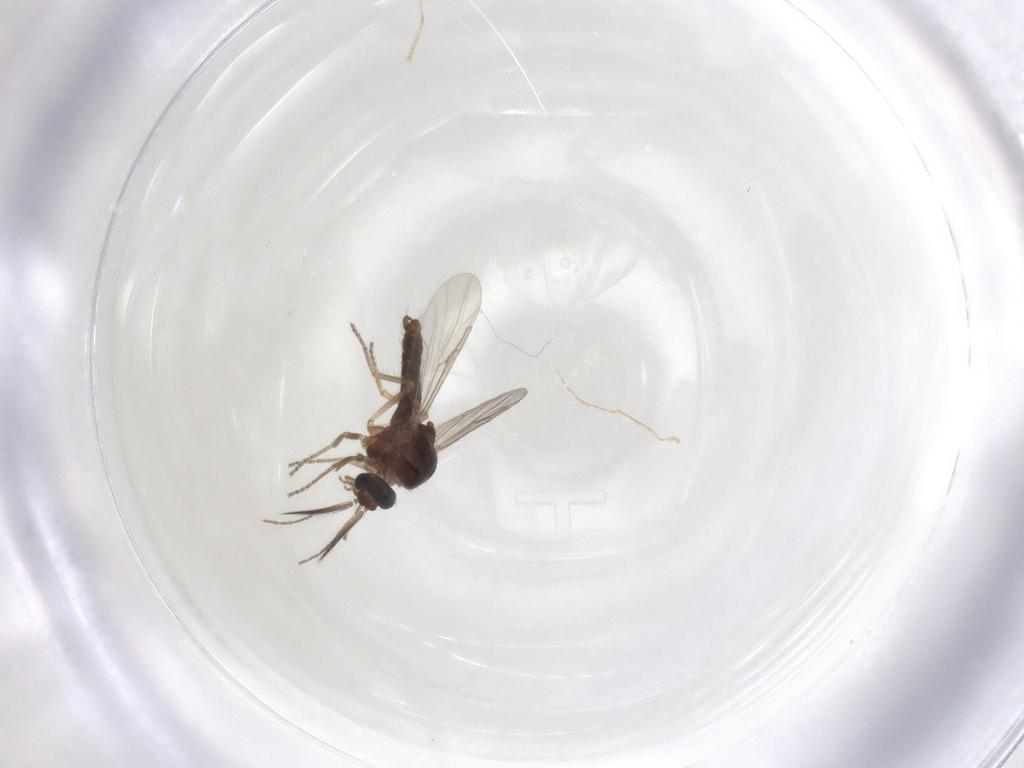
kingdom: Animalia
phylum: Arthropoda
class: Insecta
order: Diptera
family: Ceratopogonidae
